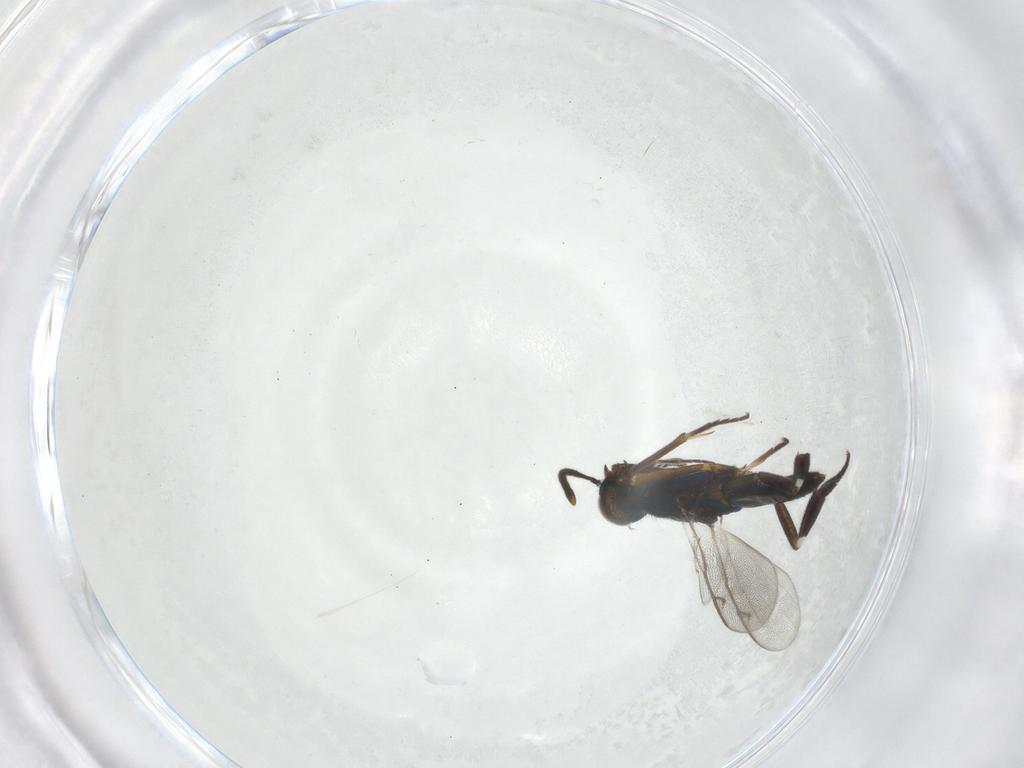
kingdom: Animalia
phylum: Arthropoda
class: Insecta
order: Hymenoptera
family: Metapelmatidae
